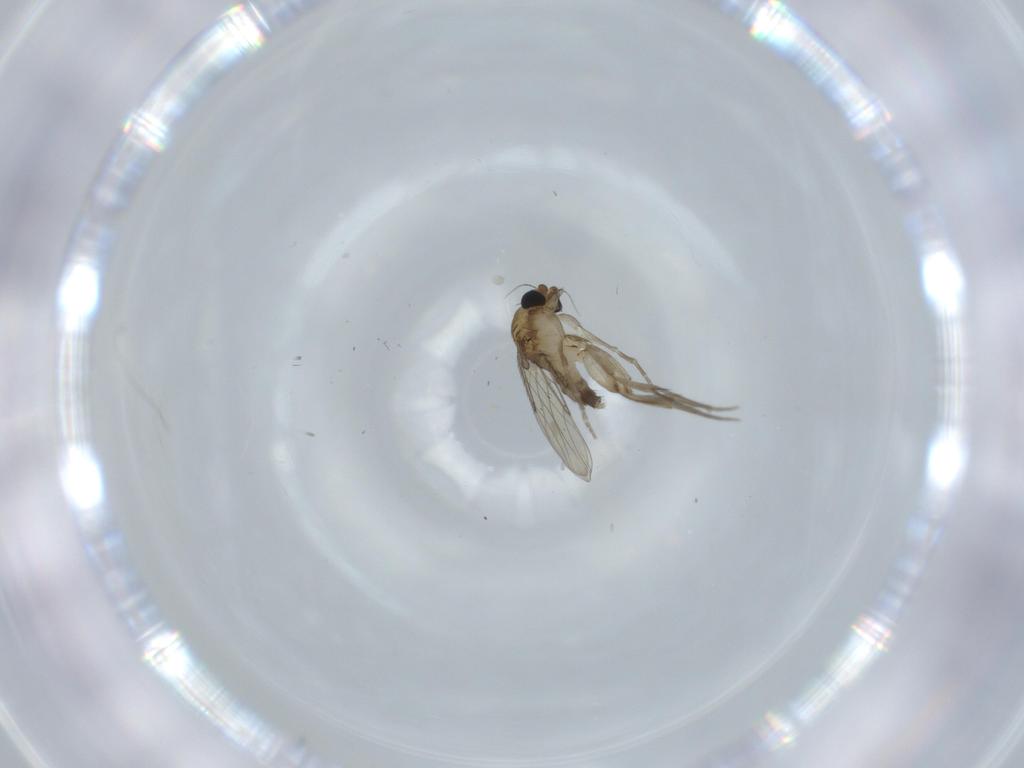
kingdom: Animalia
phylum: Arthropoda
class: Insecta
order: Diptera
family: Phoridae
